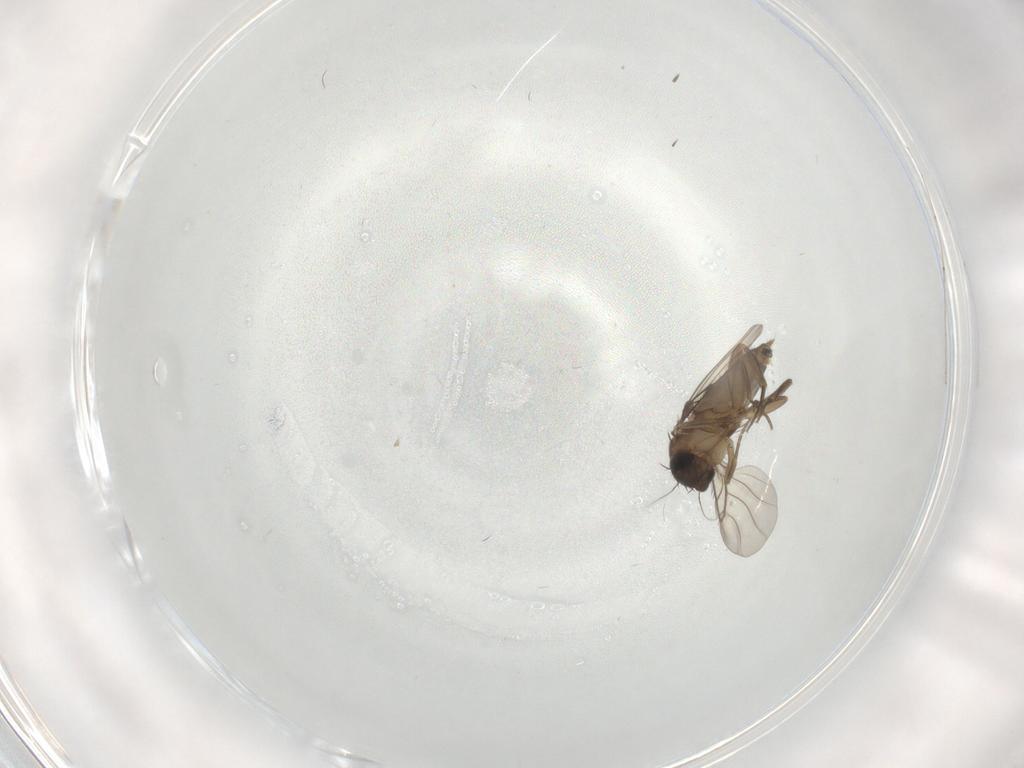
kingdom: Animalia
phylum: Arthropoda
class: Insecta
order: Diptera
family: Phoridae
